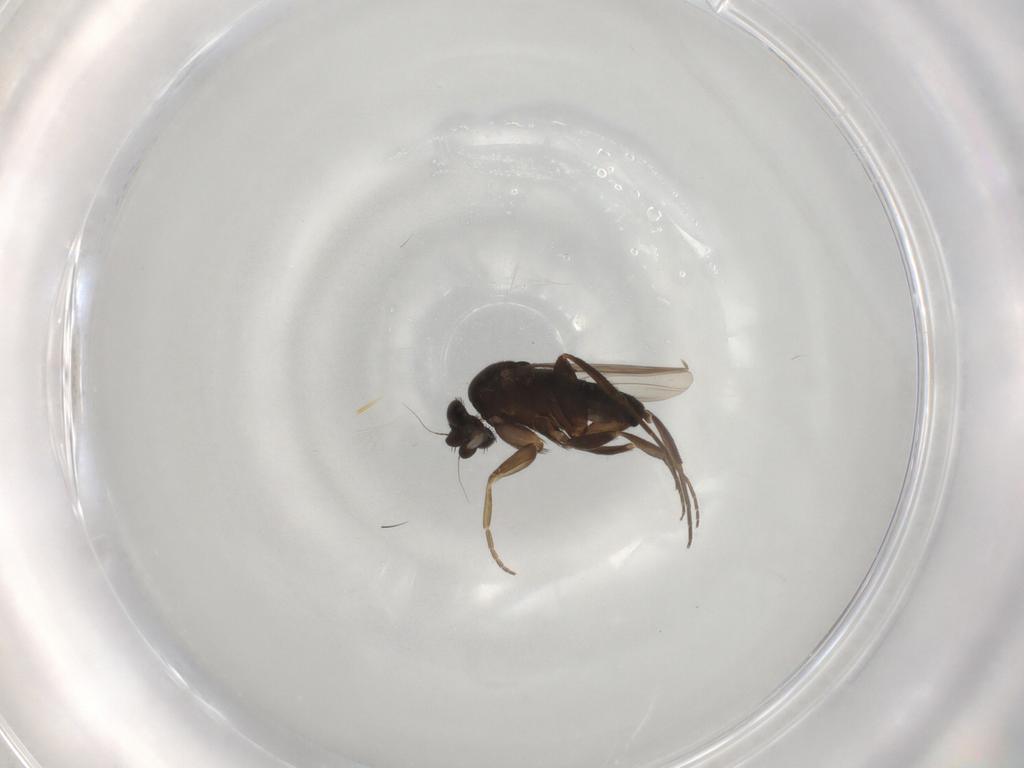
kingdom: Animalia
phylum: Arthropoda
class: Insecta
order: Diptera
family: Phoridae
